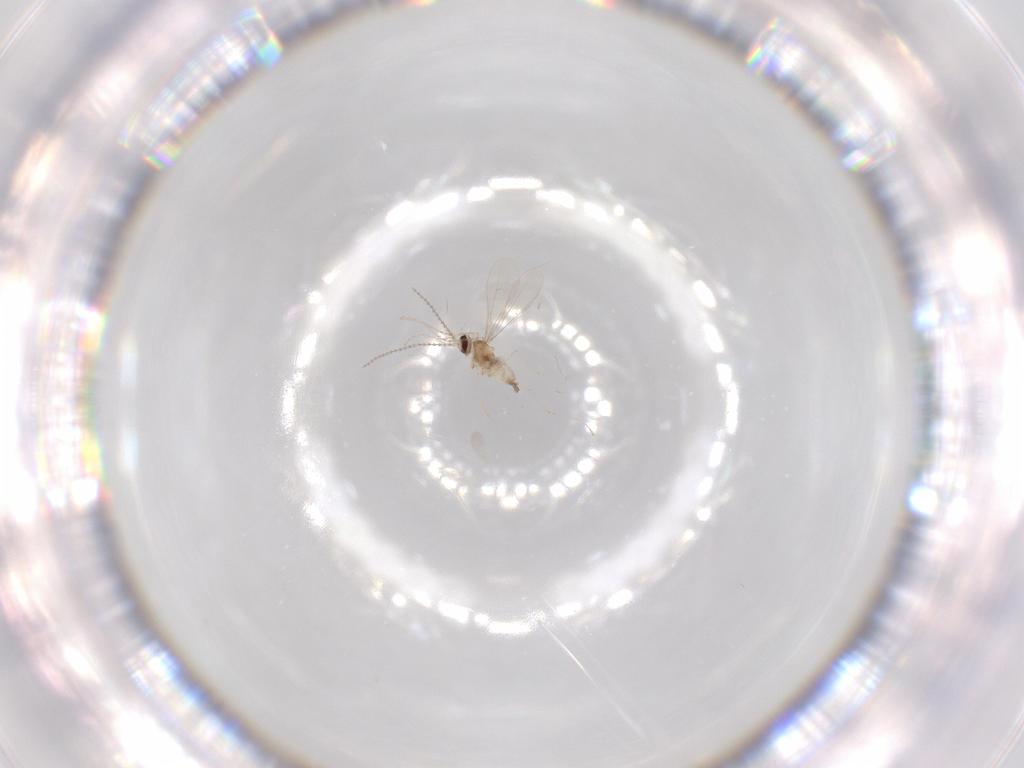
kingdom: Animalia
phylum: Arthropoda
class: Insecta
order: Diptera
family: Cecidomyiidae
